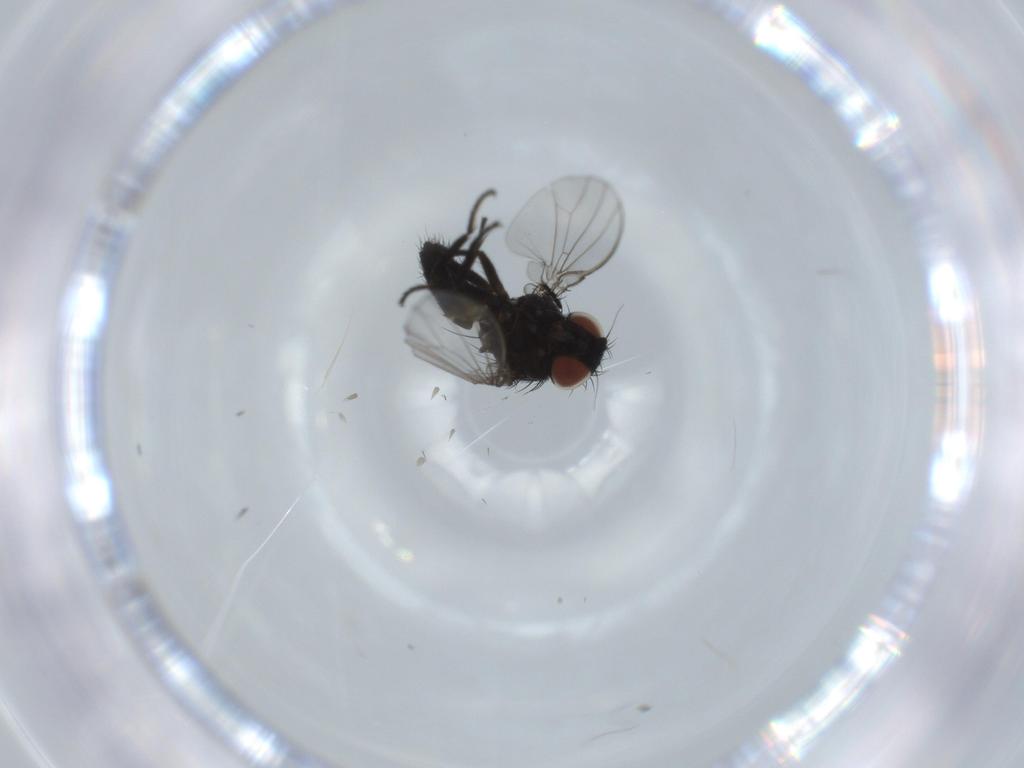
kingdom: Animalia
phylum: Arthropoda
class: Insecta
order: Diptera
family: Milichiidae
